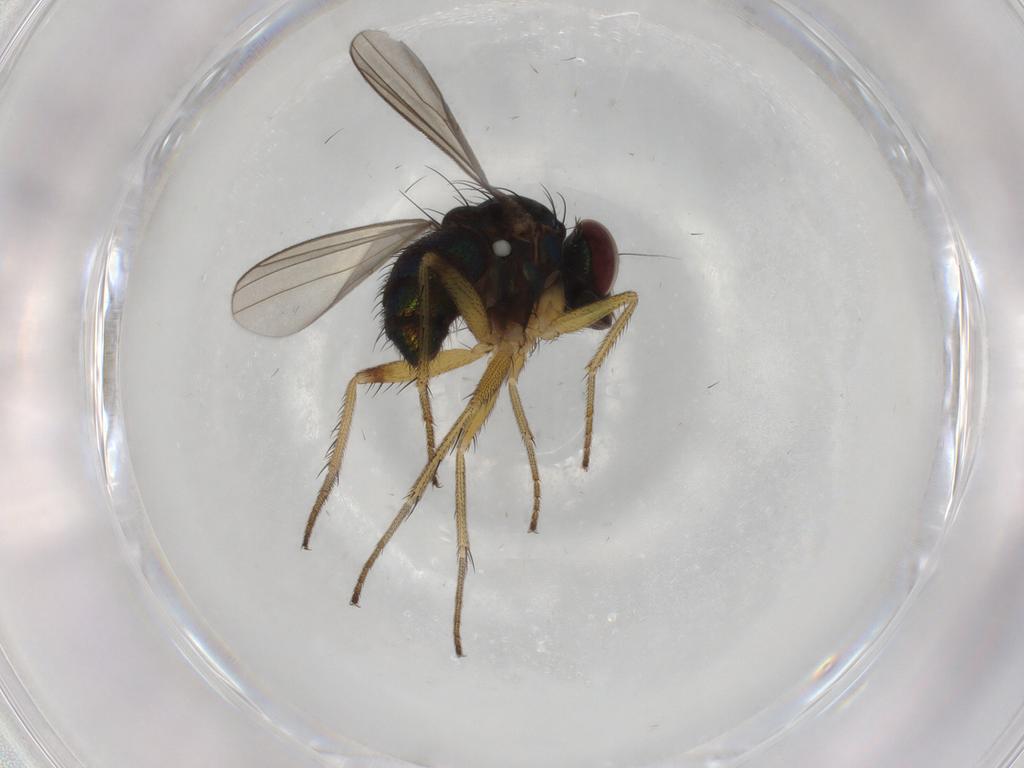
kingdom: Animalia
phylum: Arthropoda
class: Insecta
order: Diptera
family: Dolichopodidae
